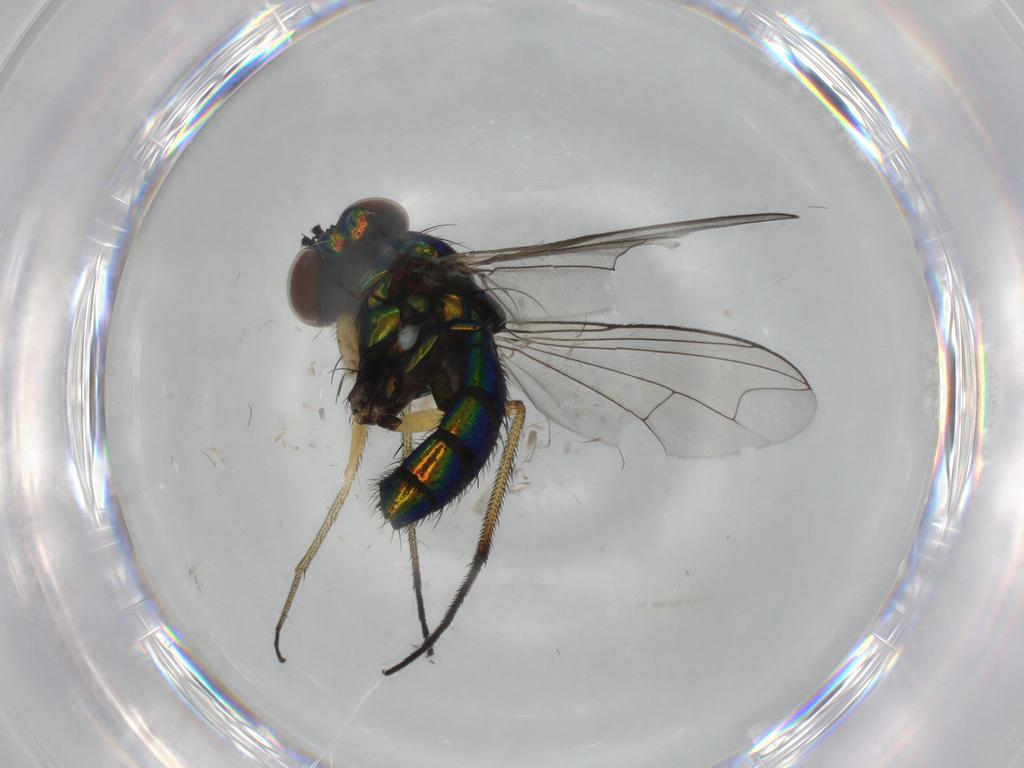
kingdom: Animalia
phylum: Arthropoda
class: Insecta
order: Diptera
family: Dolichopodidae
